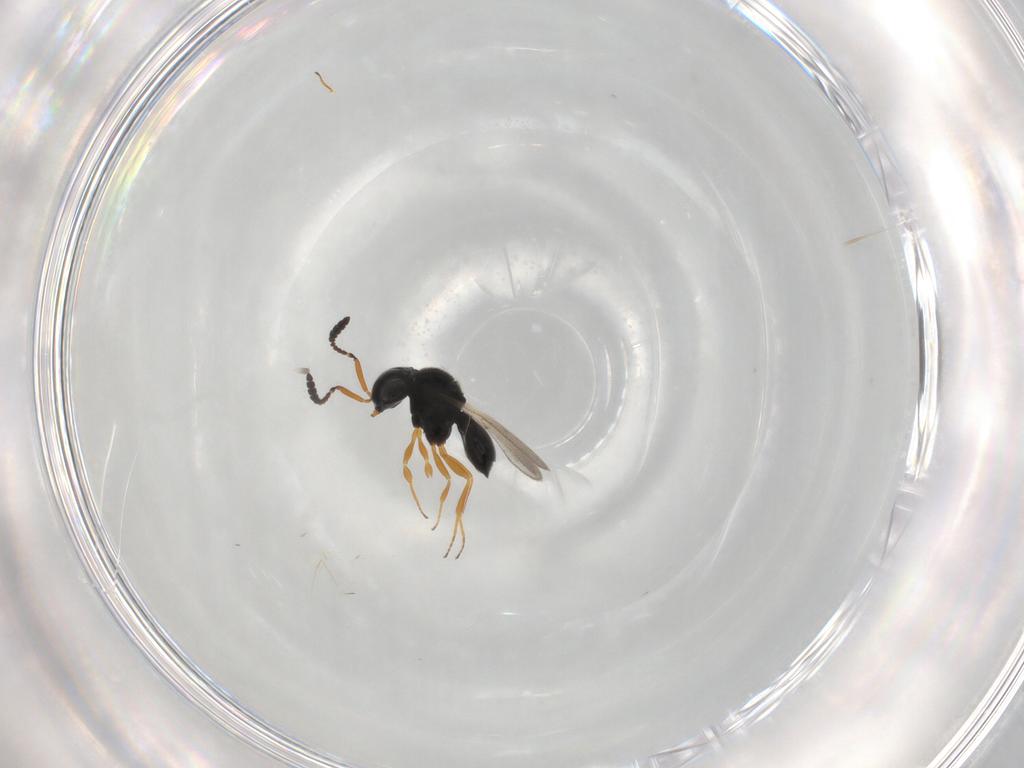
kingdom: Animalia
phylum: Arthropoda
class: Insecta
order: Hymenoptera
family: Scelionidae
